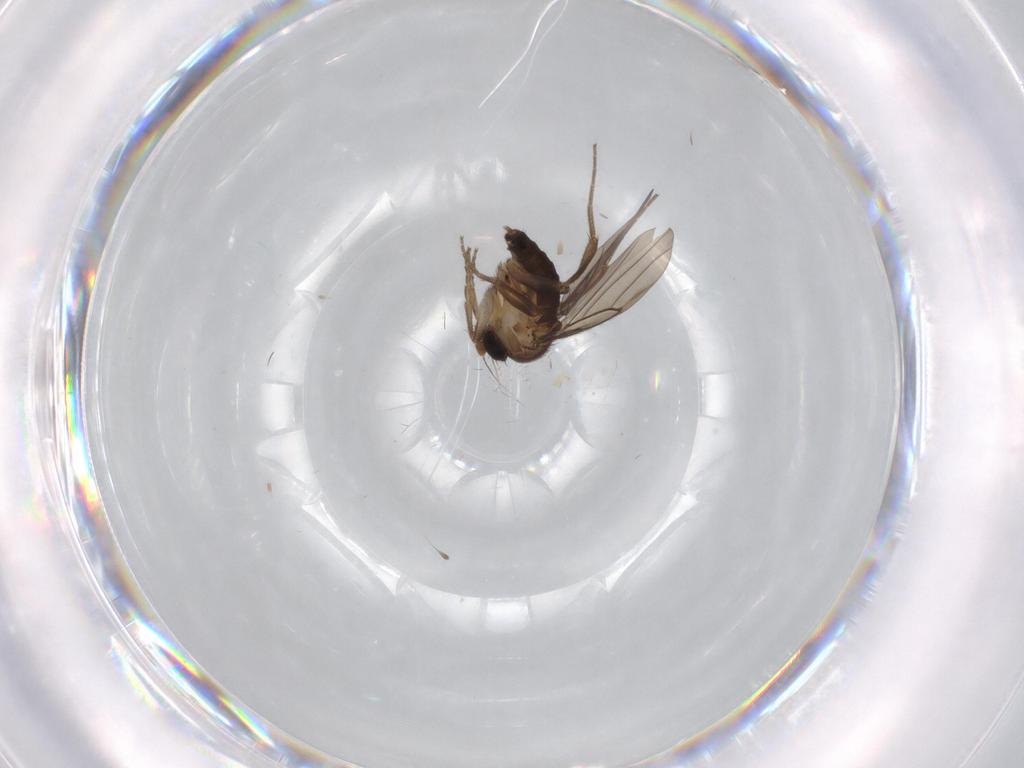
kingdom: Animalia
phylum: Arthropoda
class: Insecta
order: Diptera
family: Limoniidae
